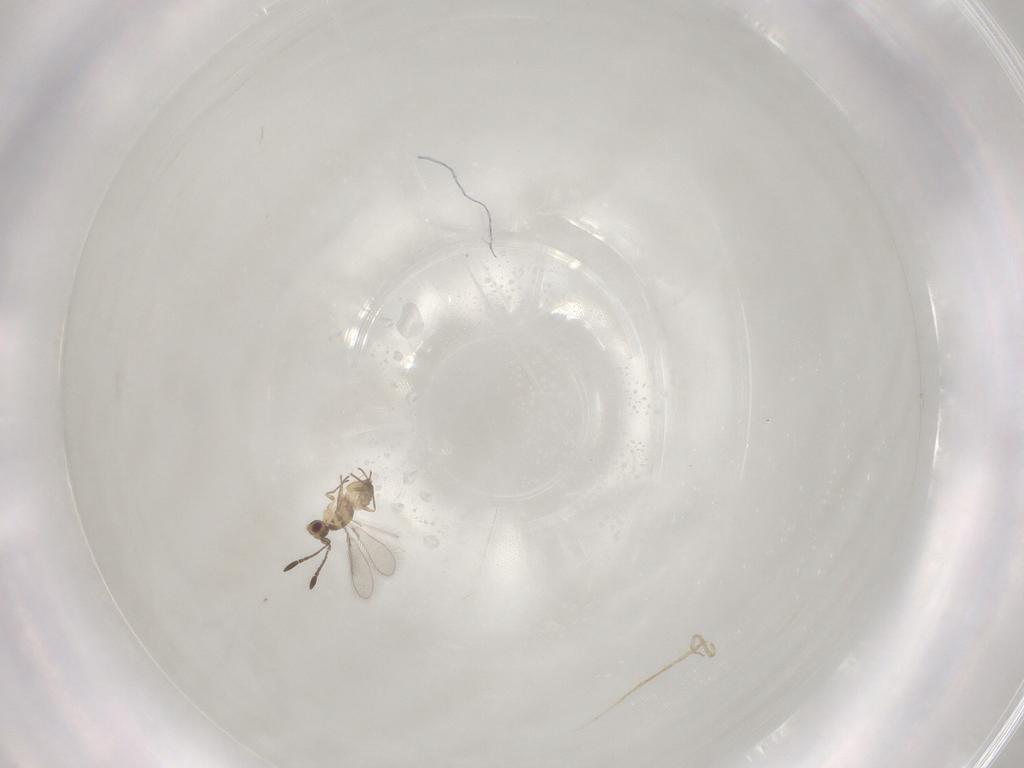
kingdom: Animalia
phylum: Arthropoda
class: Insecta
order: Hymenoptera
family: Mymaridae
